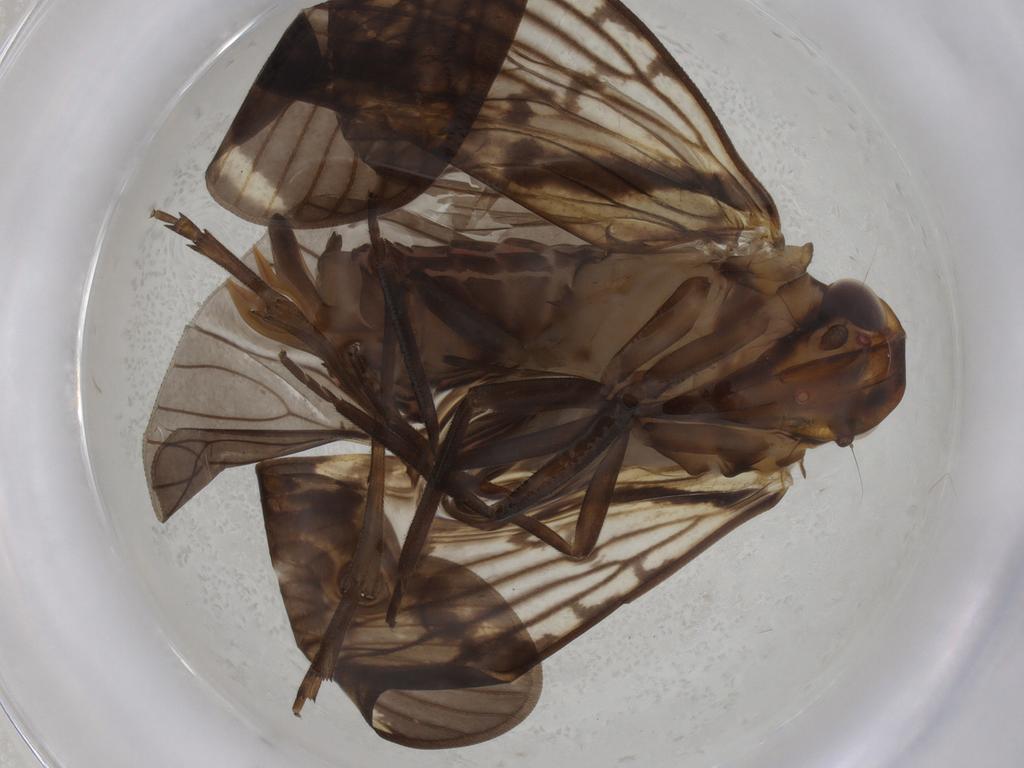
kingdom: Animalia
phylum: Arthropoda
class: Insecta
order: Hemiptera
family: Cixiidae
